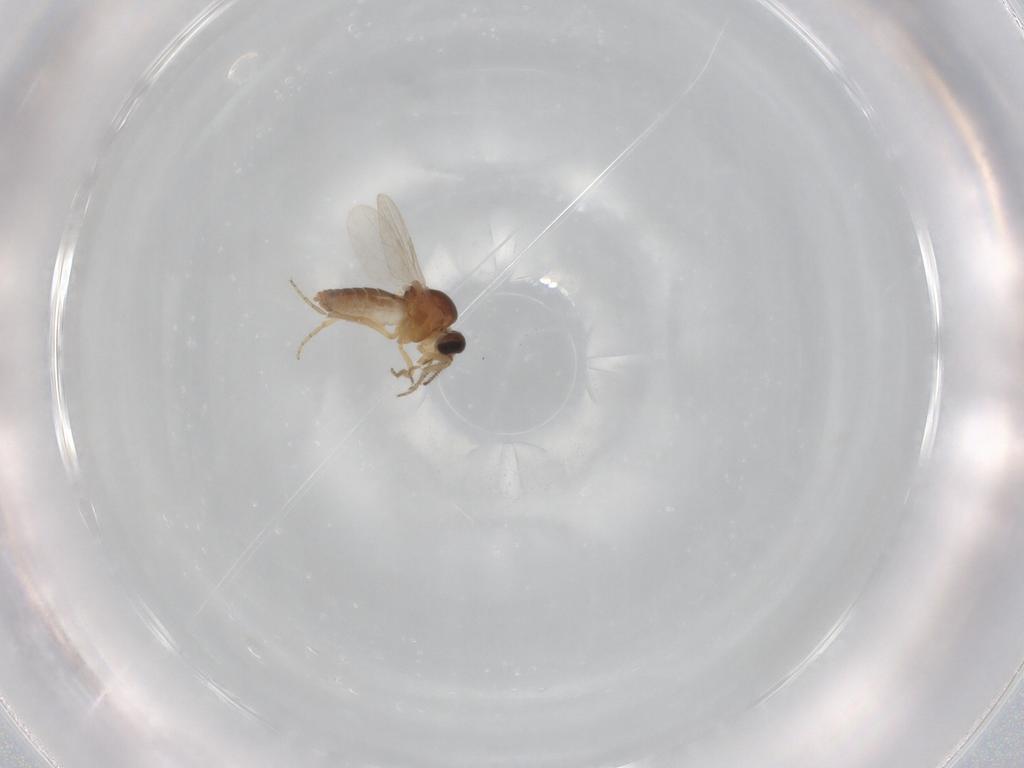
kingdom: Animalia
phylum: Arthropoda
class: Insecta
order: Diptera
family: Ceratopogonidae
